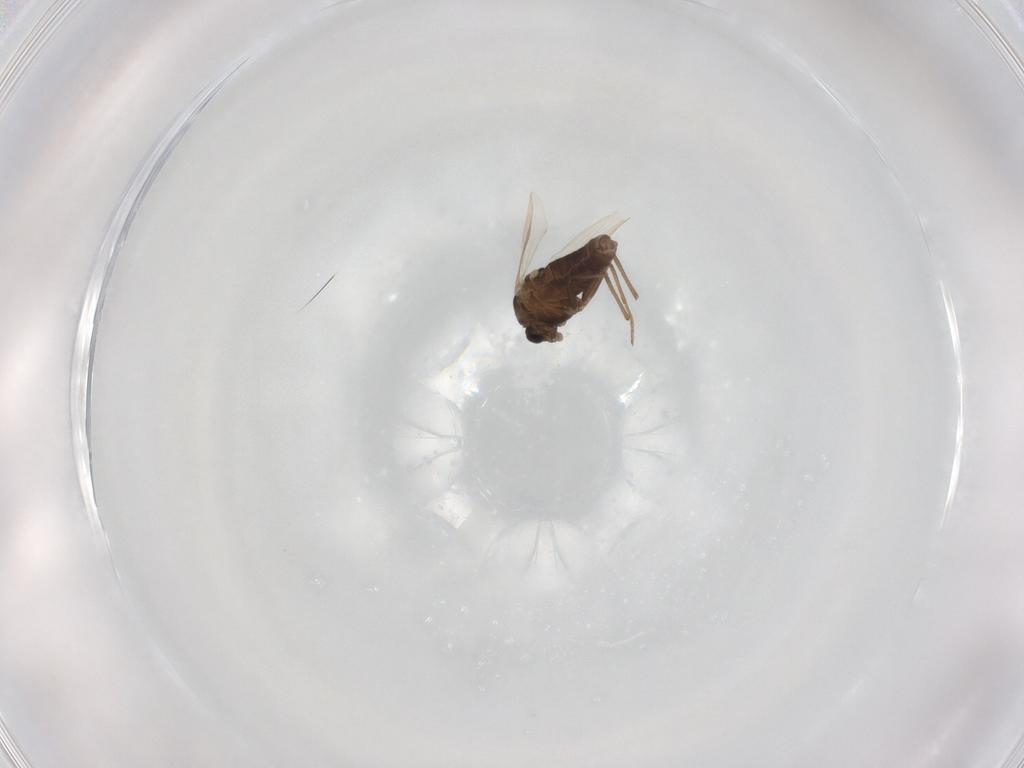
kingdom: Animalia
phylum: Arthropoda
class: Insecta
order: Diptera
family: Chironomidae
